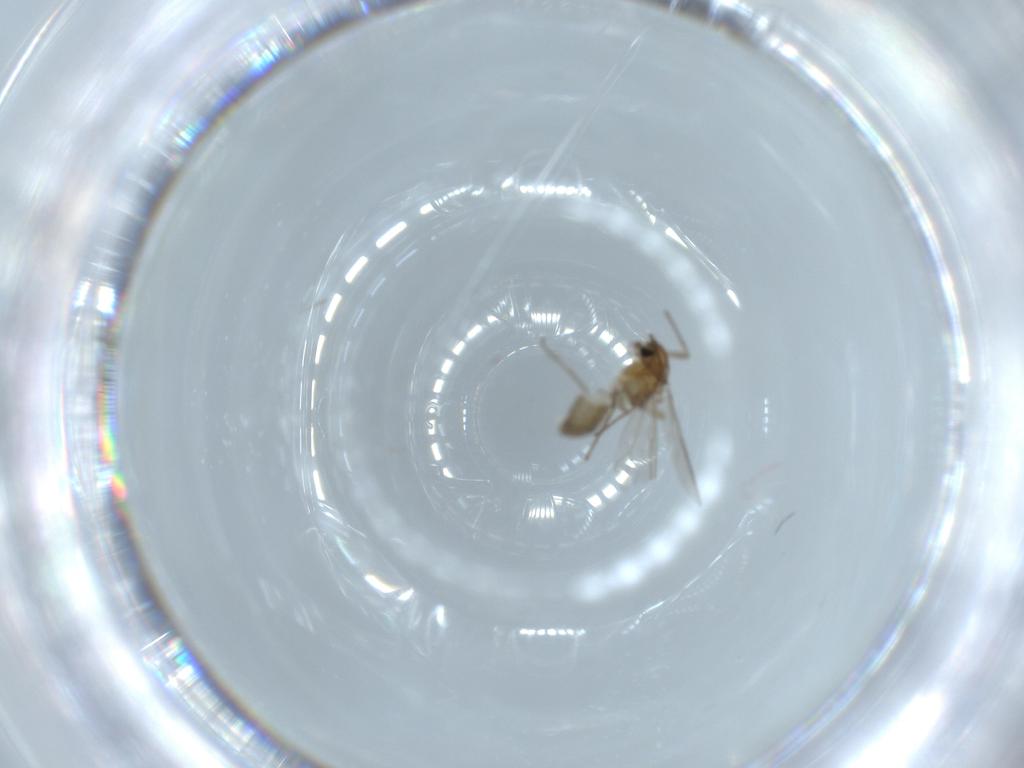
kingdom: Animalia
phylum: Arthropoda
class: Insecta
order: Diptera
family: Chironomidae
